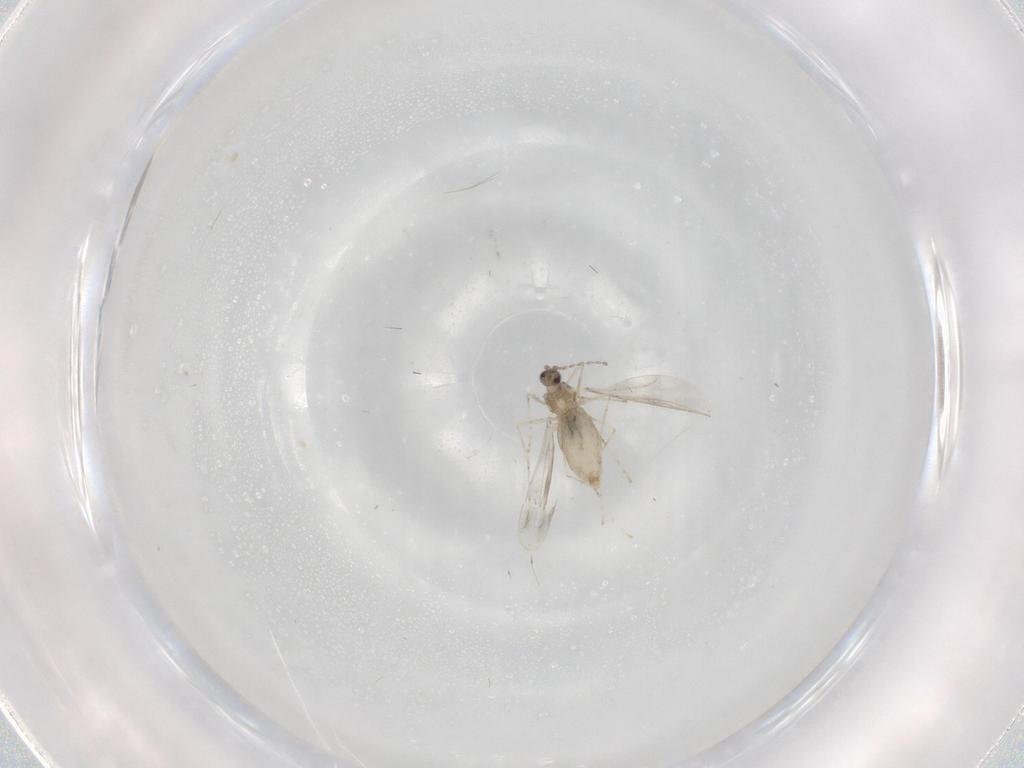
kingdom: Animalia
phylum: Arthropoda
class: Insecta
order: Diptera
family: Cecidomyiidae
